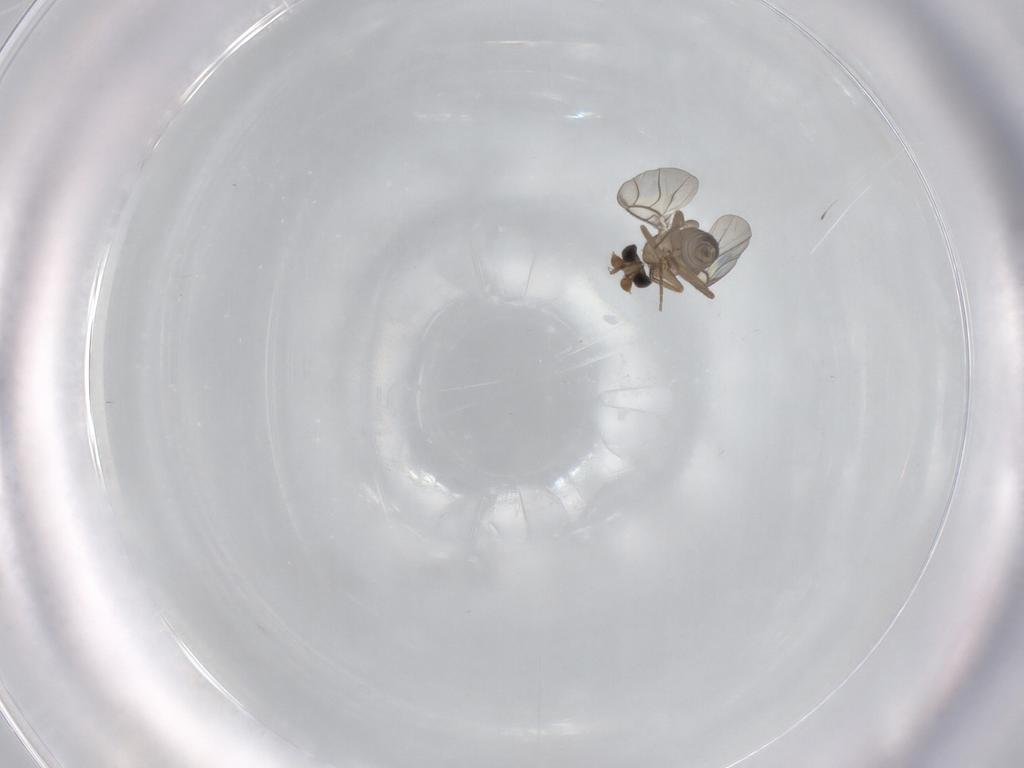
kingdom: Animalia
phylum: Arthropoda
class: Insecta
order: Diptera
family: Phoridae
